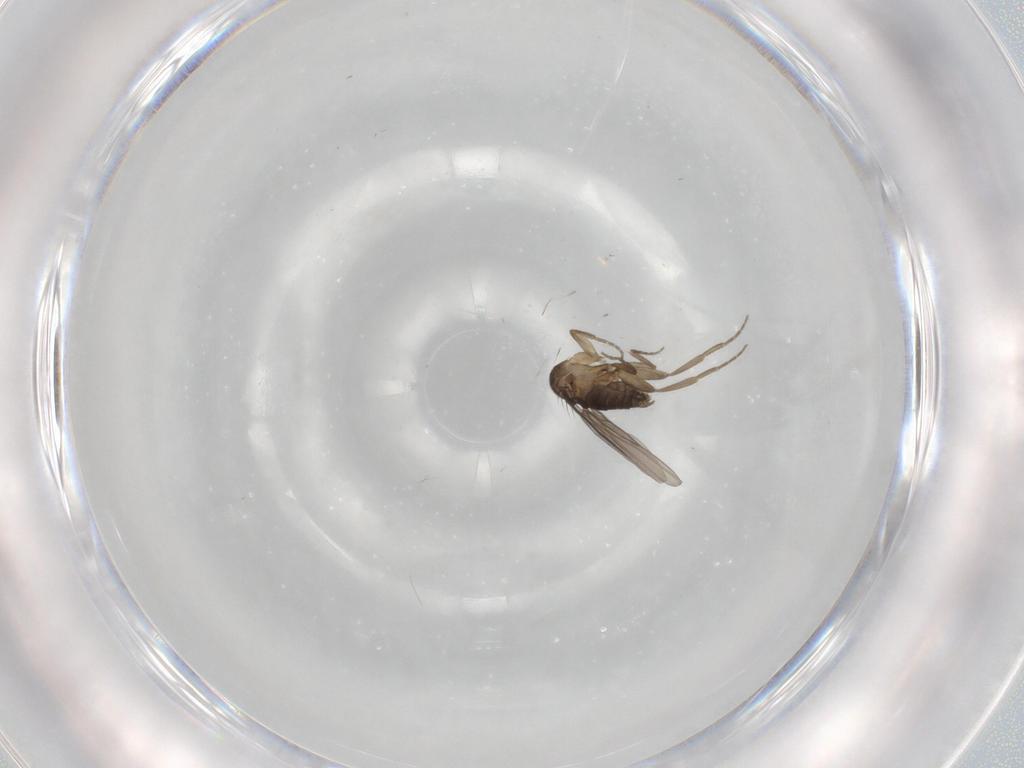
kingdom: Animalia
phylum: Arthropoda
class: Insecta
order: Diptera
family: Phoridae
